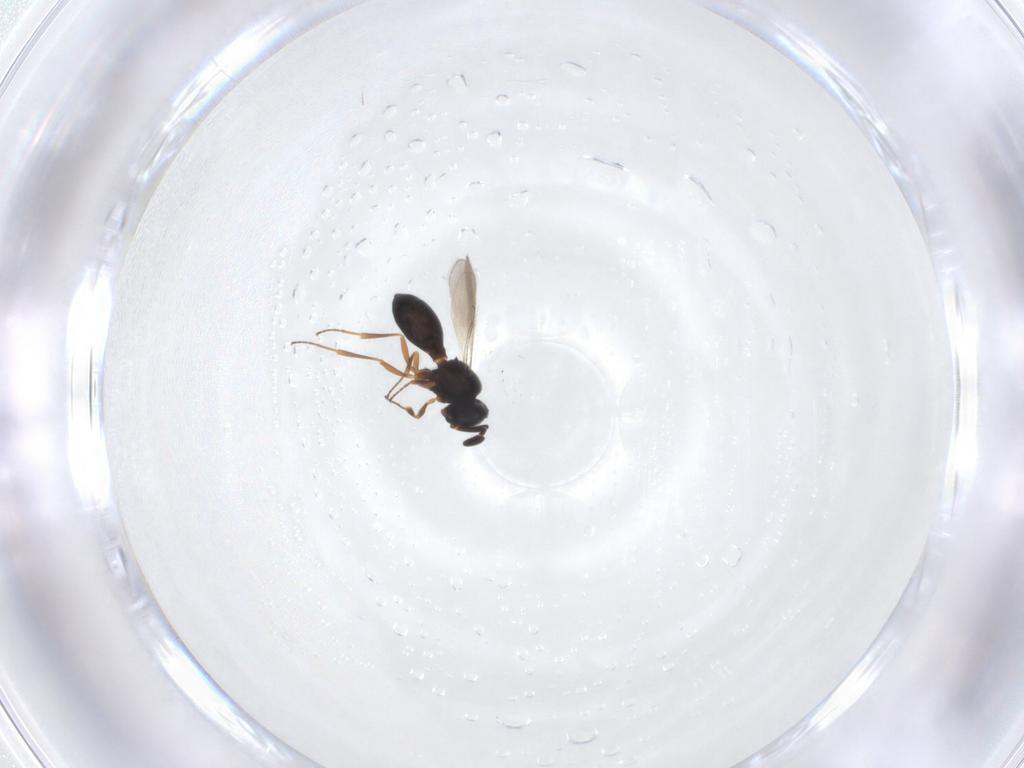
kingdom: Animalia
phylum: Arthropoda
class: Insecta
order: Hymenoptera
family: Scelionidae
